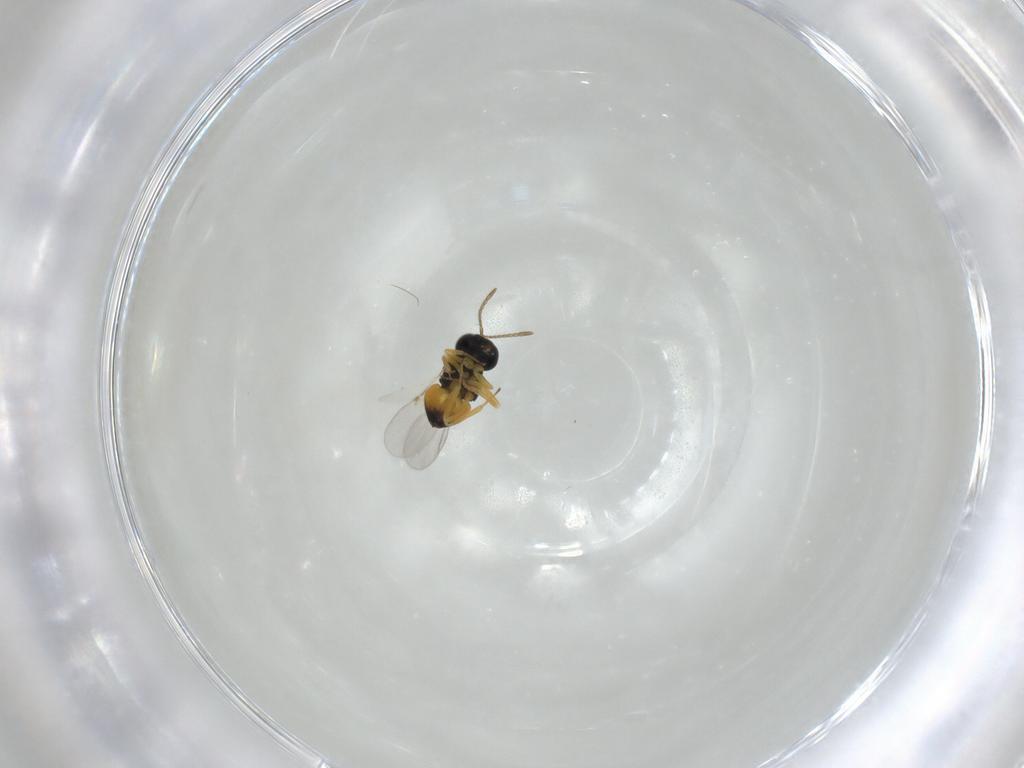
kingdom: Animalia
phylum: Arthropoda
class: Insecta
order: Hymenoptera
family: Encyrtidae
